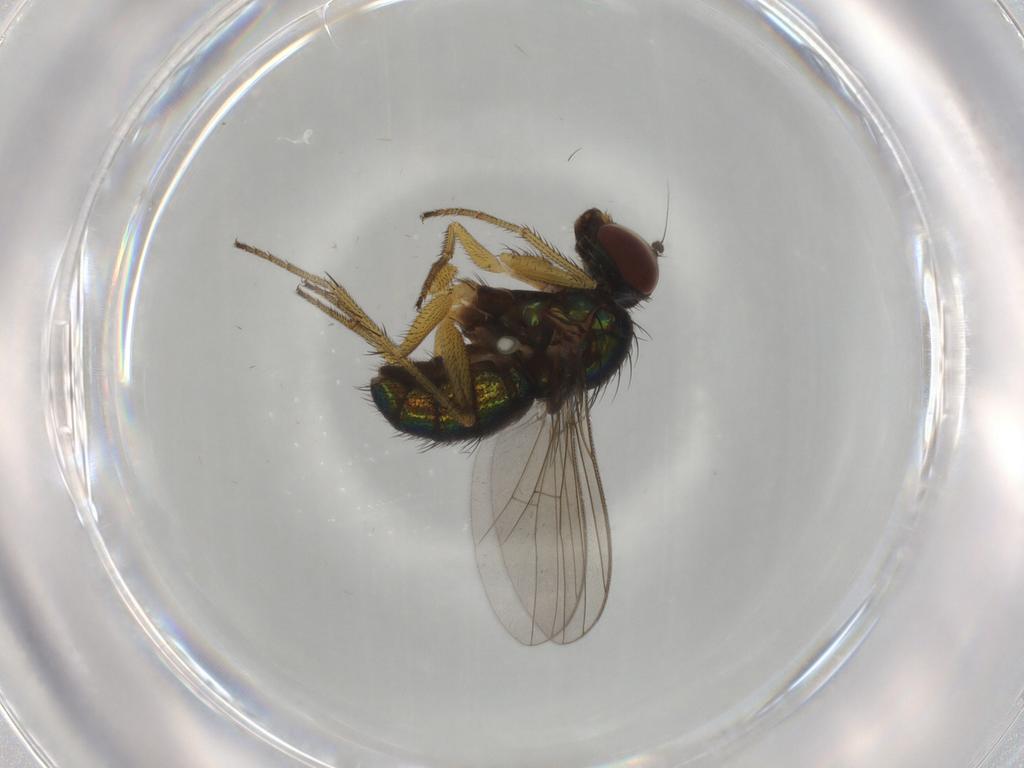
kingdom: Animalia
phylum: Arthropoda
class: Insecta
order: Diptera
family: Dolichopodidae
